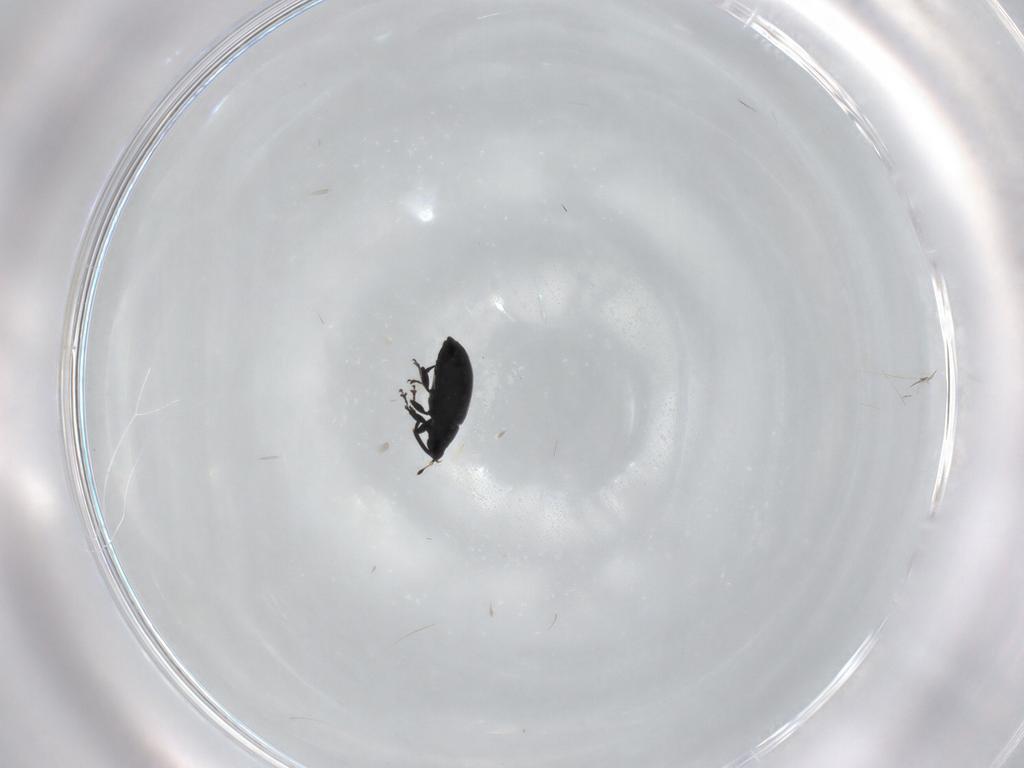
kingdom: Animalia
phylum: Arthropoda
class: Insecta
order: Coleoptera
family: Curculionidae
